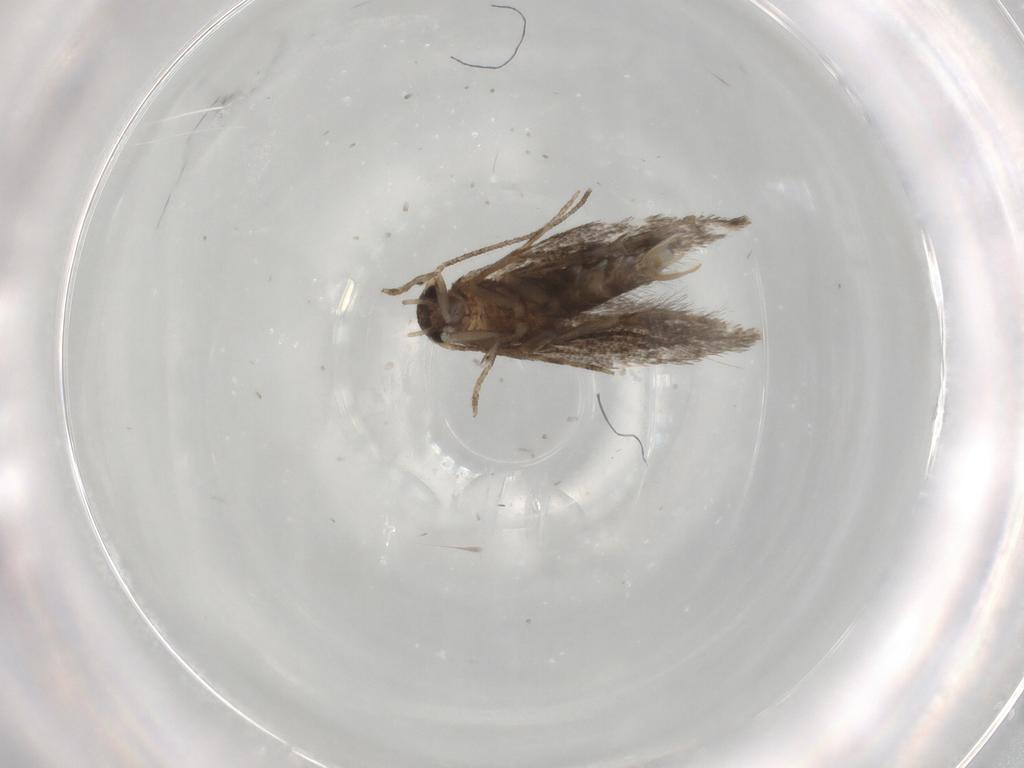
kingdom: Animalia
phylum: Arthropoda
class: Insecta
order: Lepidoptera
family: Elachistidae
